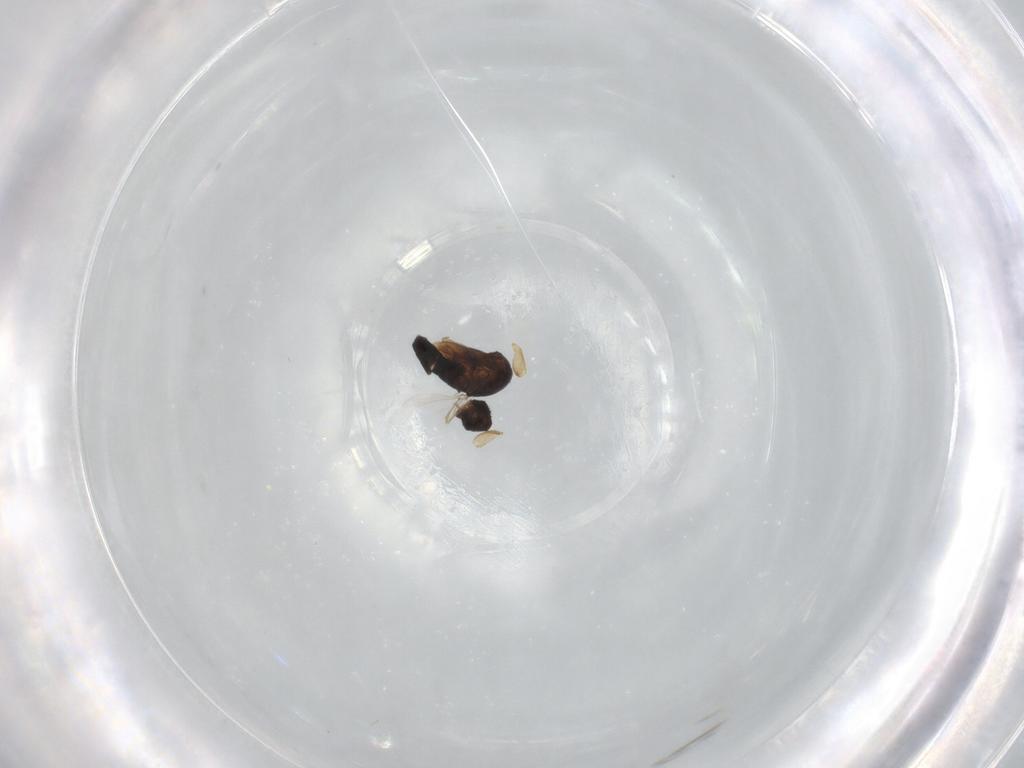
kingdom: Animalia
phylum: Arthropoda
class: Insecta
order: Diptera
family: Phoridae
